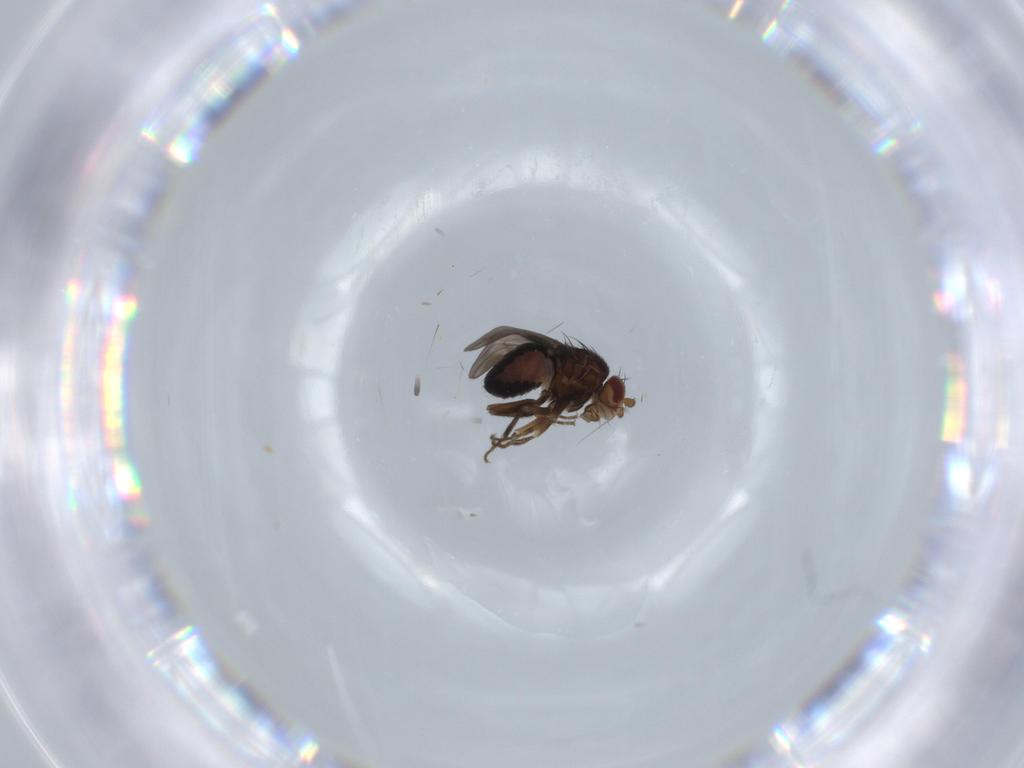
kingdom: Animalia
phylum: Arthropoda
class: Insecta
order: Diptera
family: Sphaeroceridae
